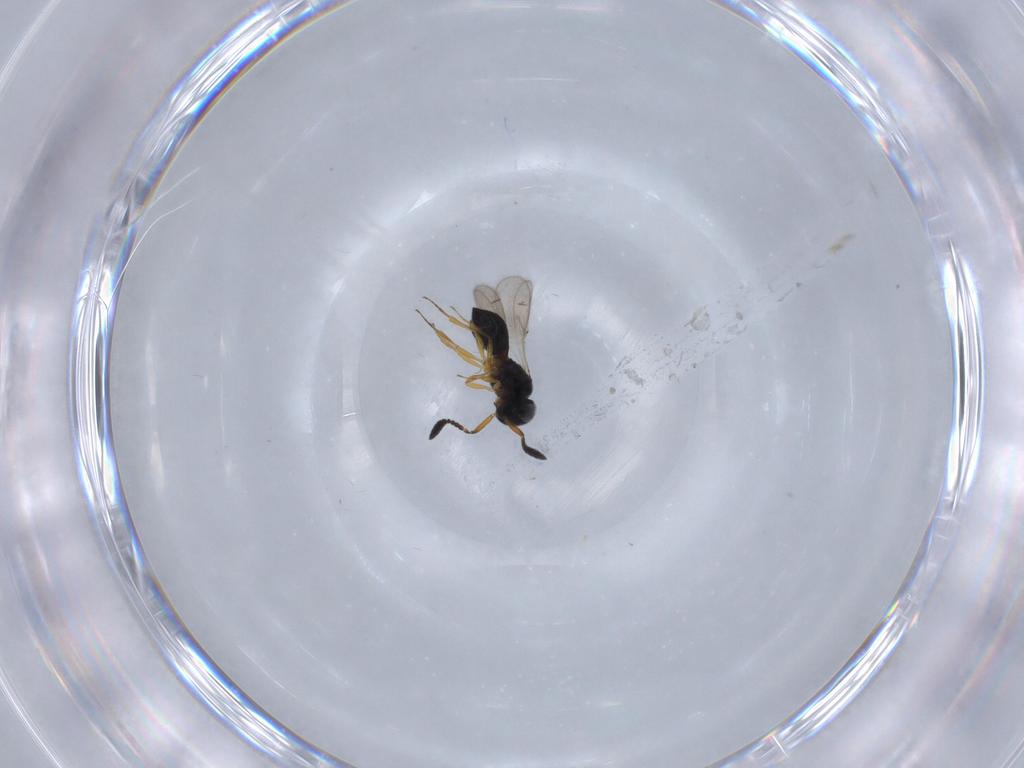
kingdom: Animalia
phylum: Arthropoda
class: Insecta
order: Hymenoptera
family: Scelionidae
